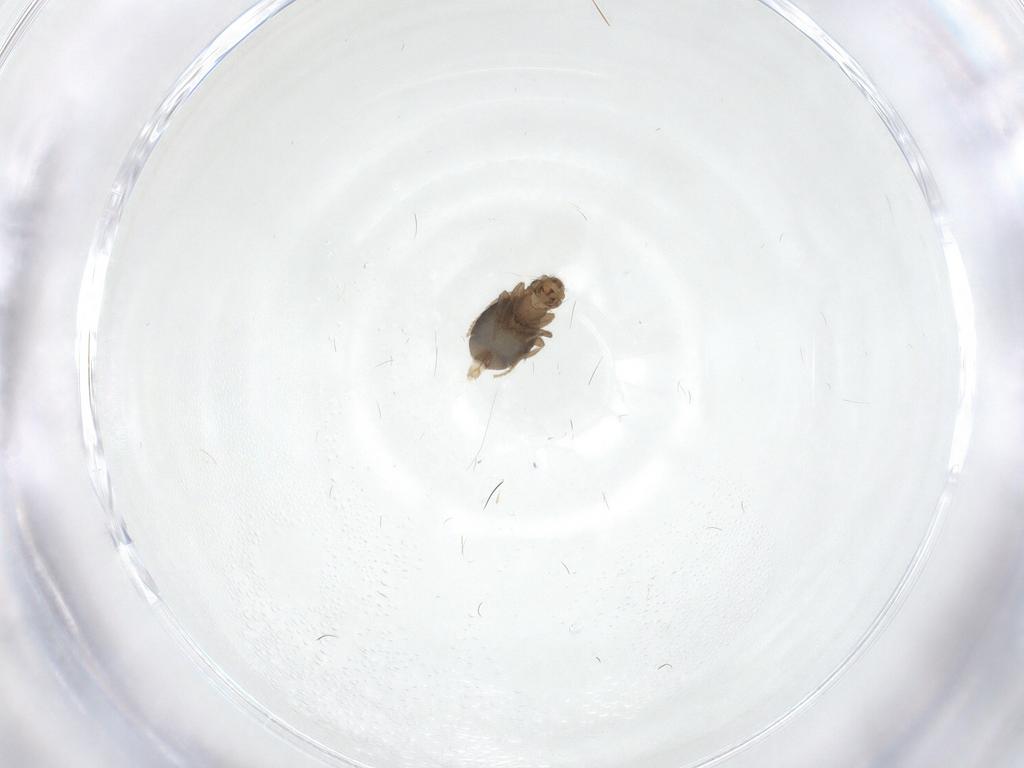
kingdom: Animalia
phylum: Arthropoda
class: Insecta
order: Diptera
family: Phoridae
